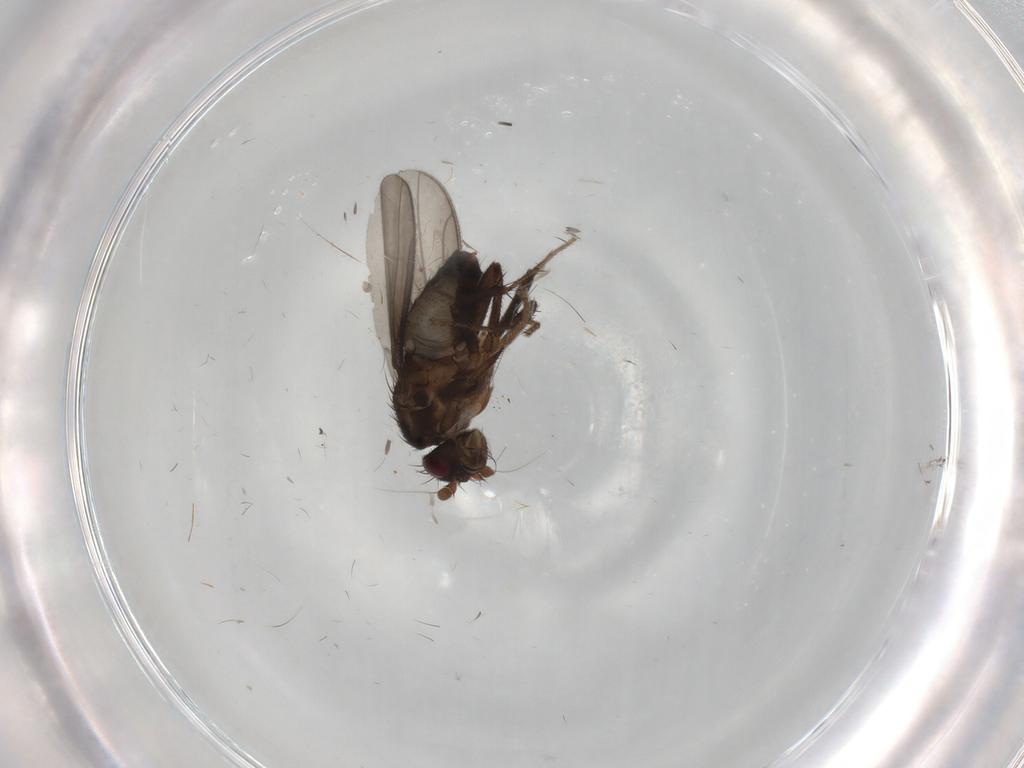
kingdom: Animalia
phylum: Arthropoda
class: Insecta
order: Diptera
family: Sphaeroceridae
